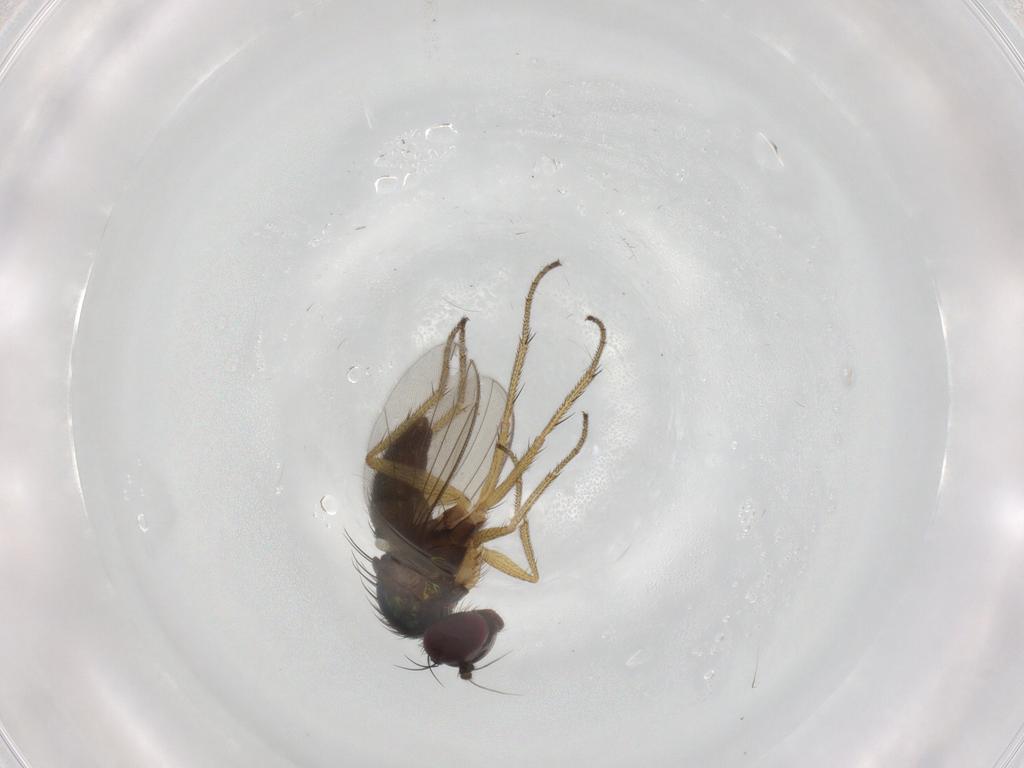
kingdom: Animalia
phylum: Arthropoda
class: Insecta
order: Diptera
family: Dolichopodidae
